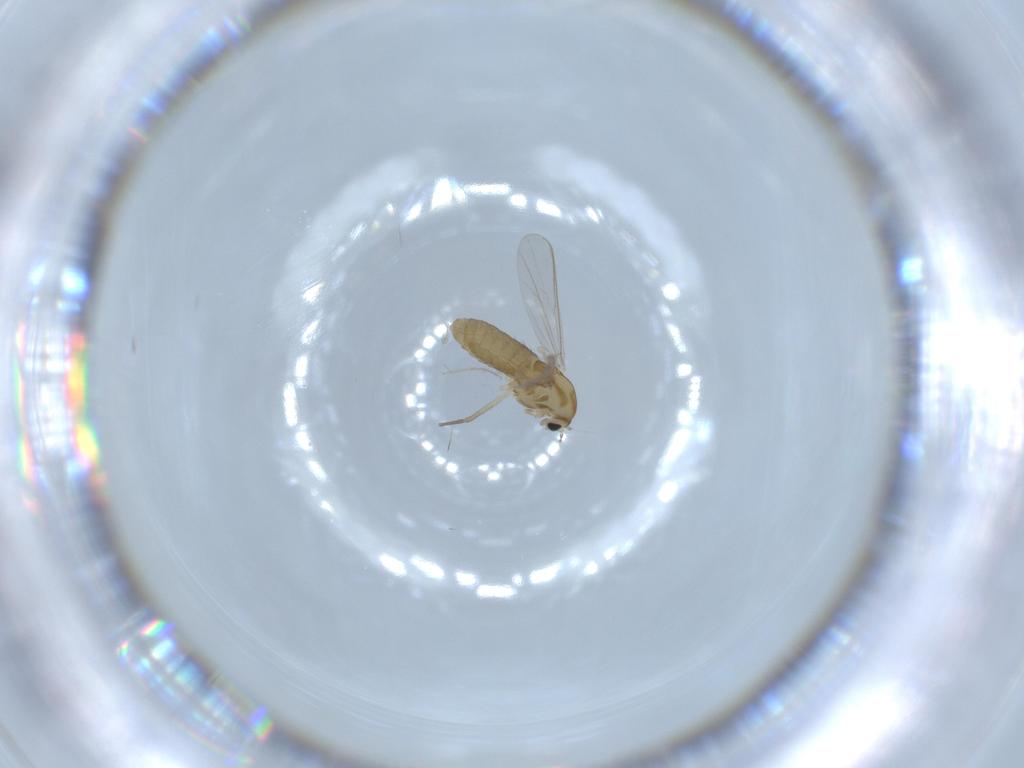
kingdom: Animalia
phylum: Arthropoda
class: Insecta
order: Diptera
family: Chironomidae
